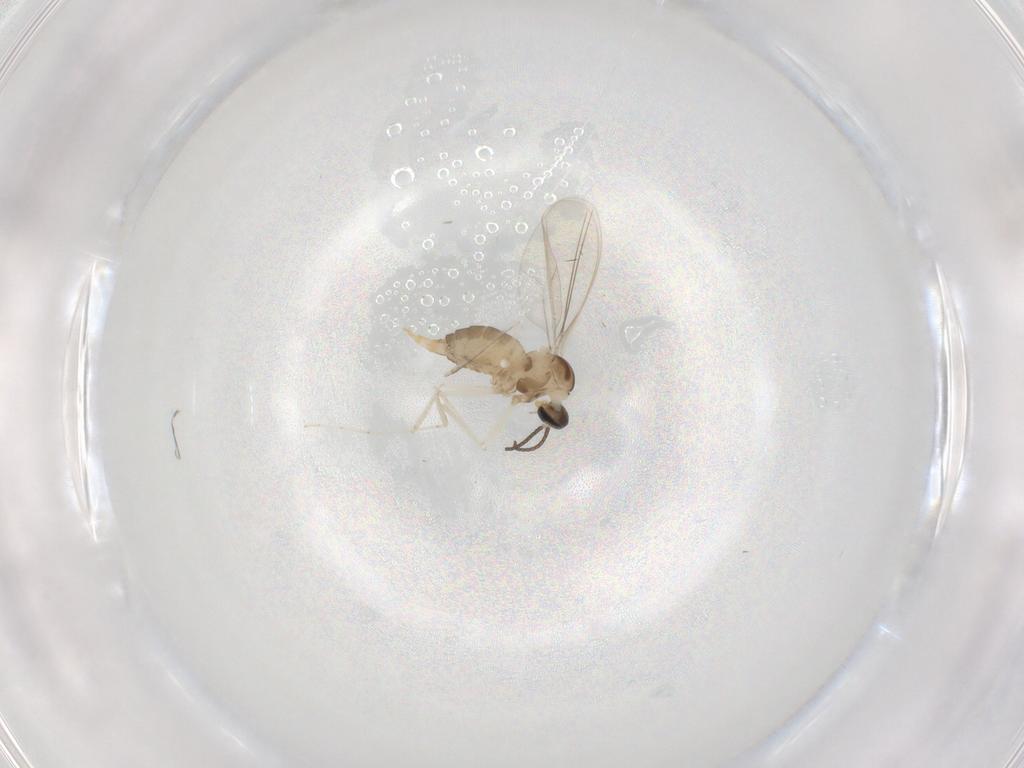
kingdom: Animalia
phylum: Arthropoda
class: Insecta
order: Diptera
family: Cecidomyiidae
